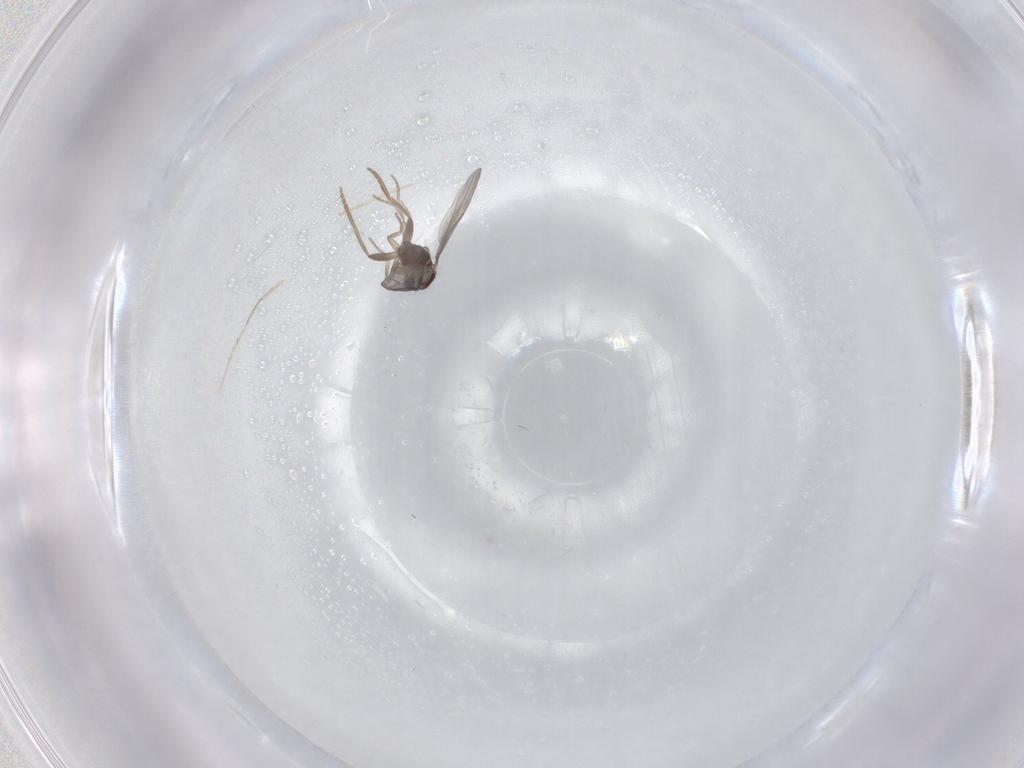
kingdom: Animalia
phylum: Arthropoda
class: Insecta
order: Diptera
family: Chironomidae
